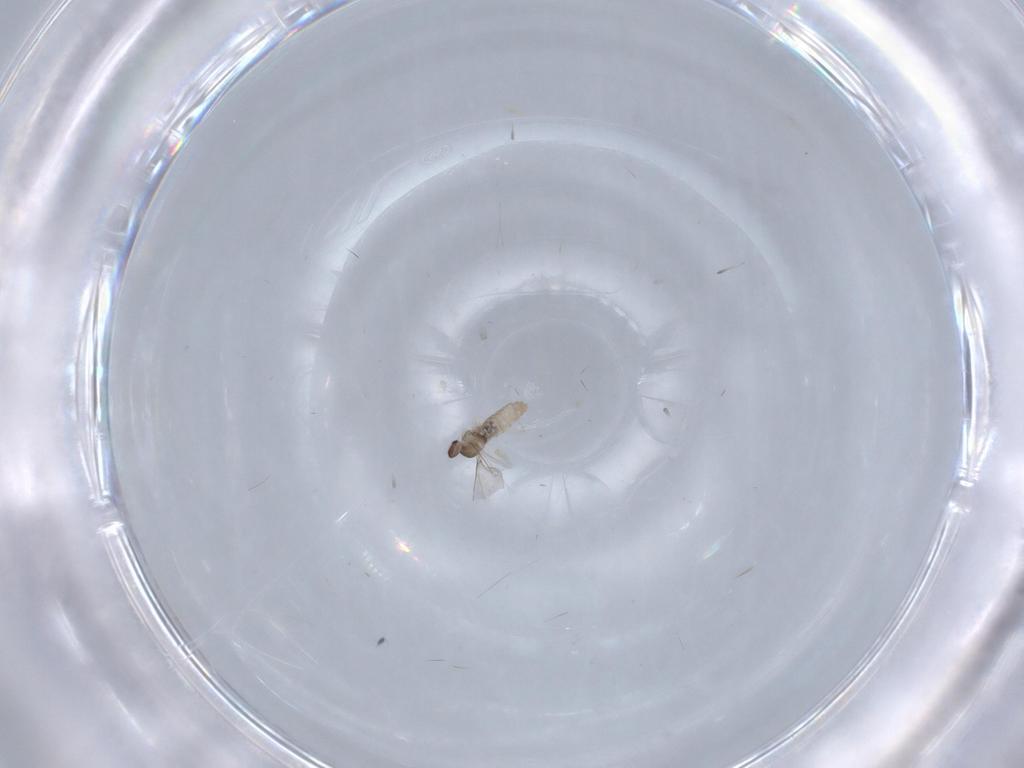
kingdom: Animalia
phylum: Arthropoda
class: Insecta
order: Diptera
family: Cecidomyiidae
